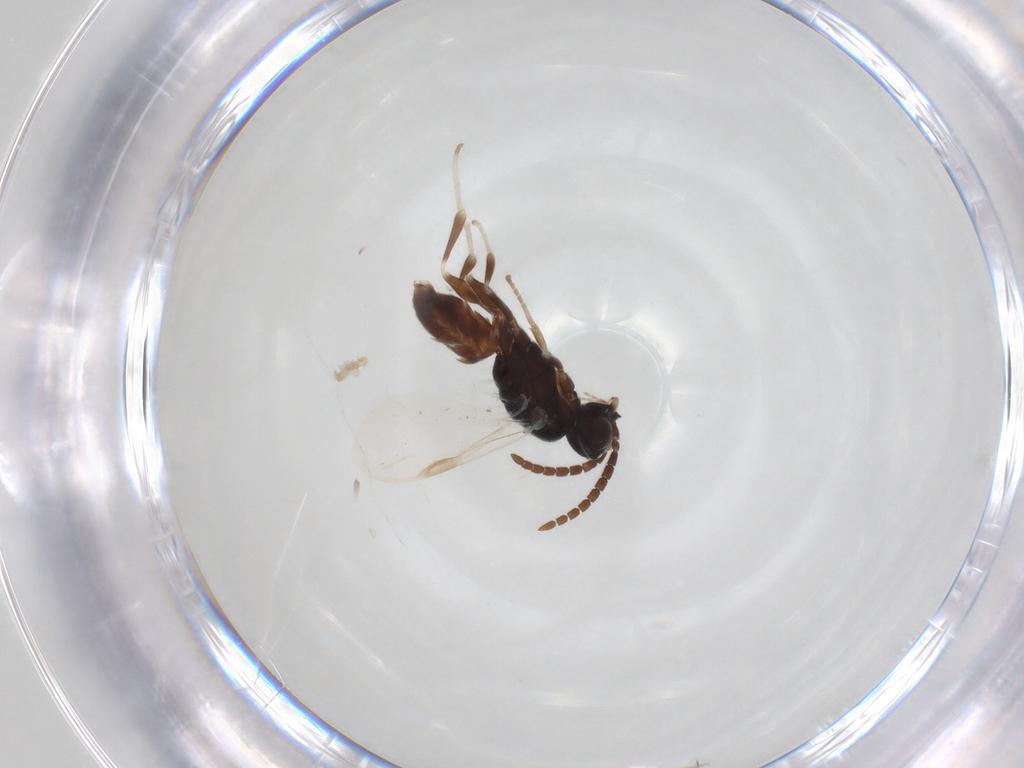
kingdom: Animalia
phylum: Arthropoda
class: Insecta
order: Hymenoptera
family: Dryinidae
